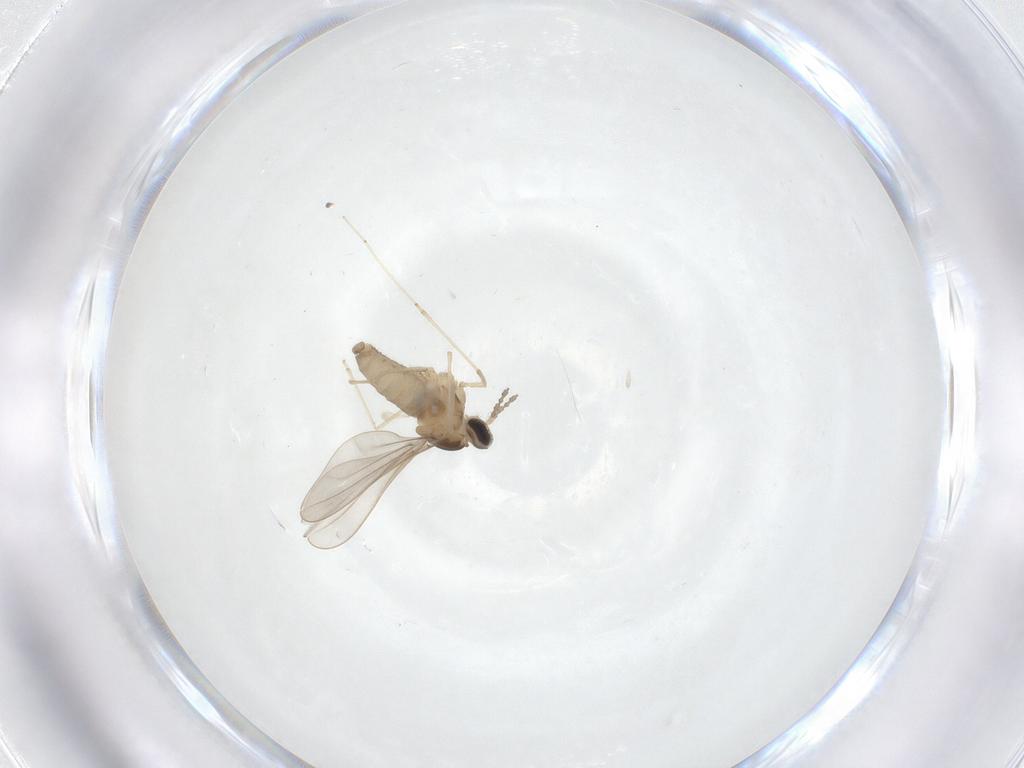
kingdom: Animalia
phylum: Arthropoda
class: Insecta
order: Diptera
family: Cecidomyiidae
